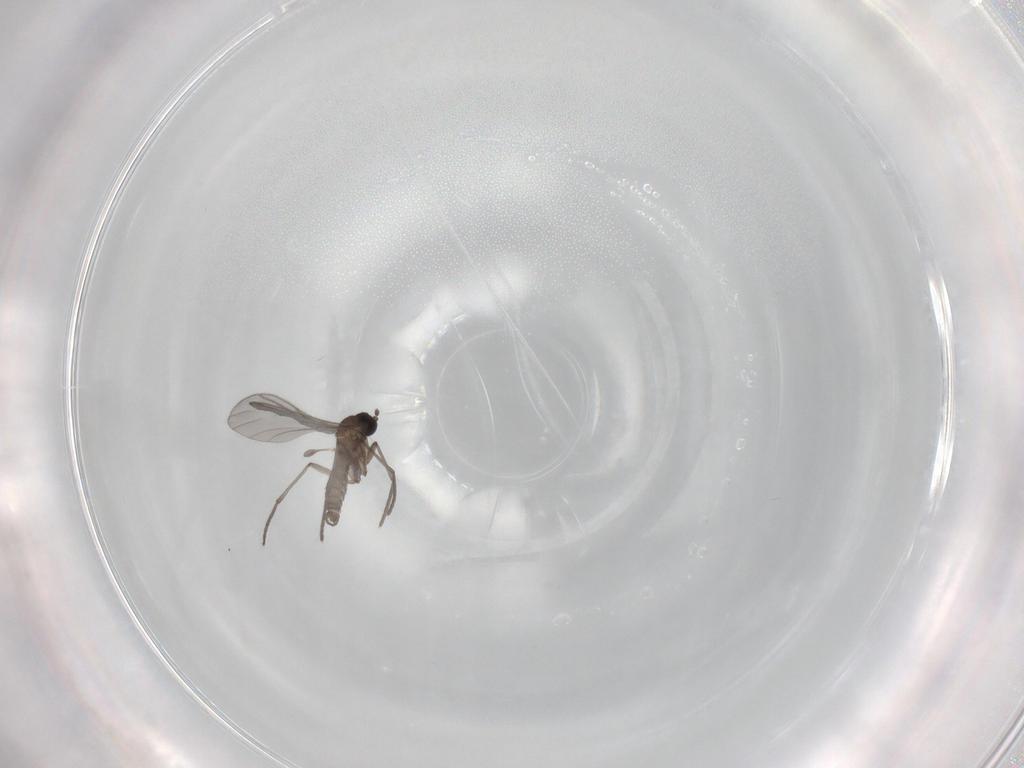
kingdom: Animalia
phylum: Arthropoda
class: Insecta
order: Diptera
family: Sciaridae
